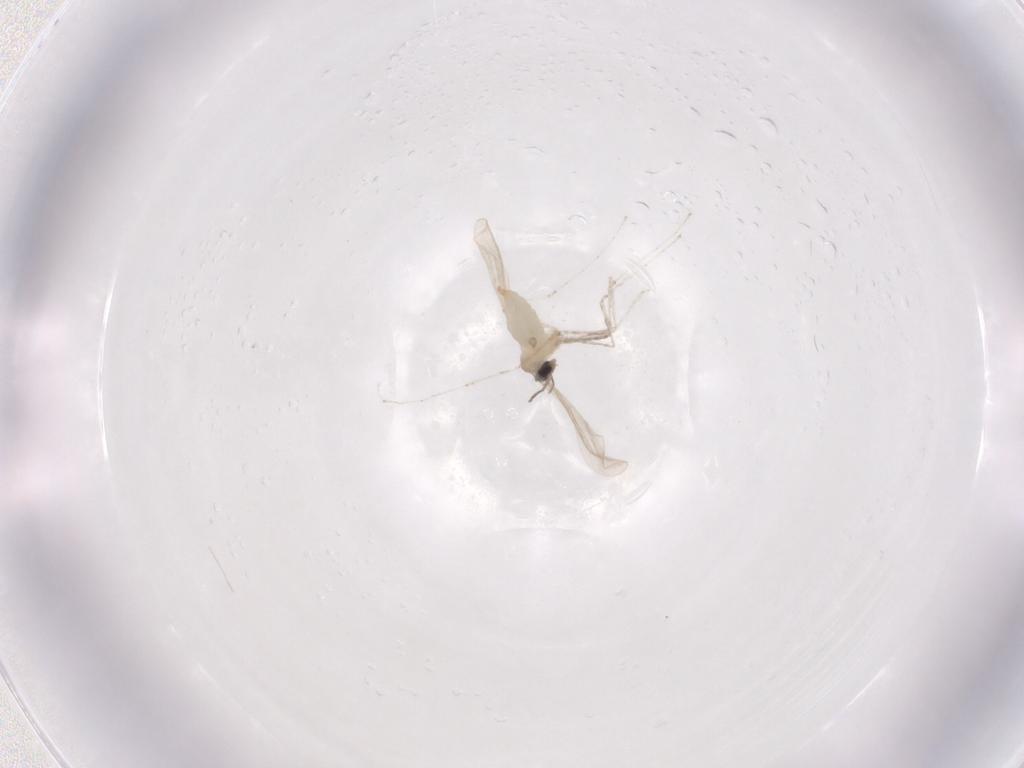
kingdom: Animalia
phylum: Arthropoda
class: Insecta
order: Diptera
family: Cecidomyiidae
